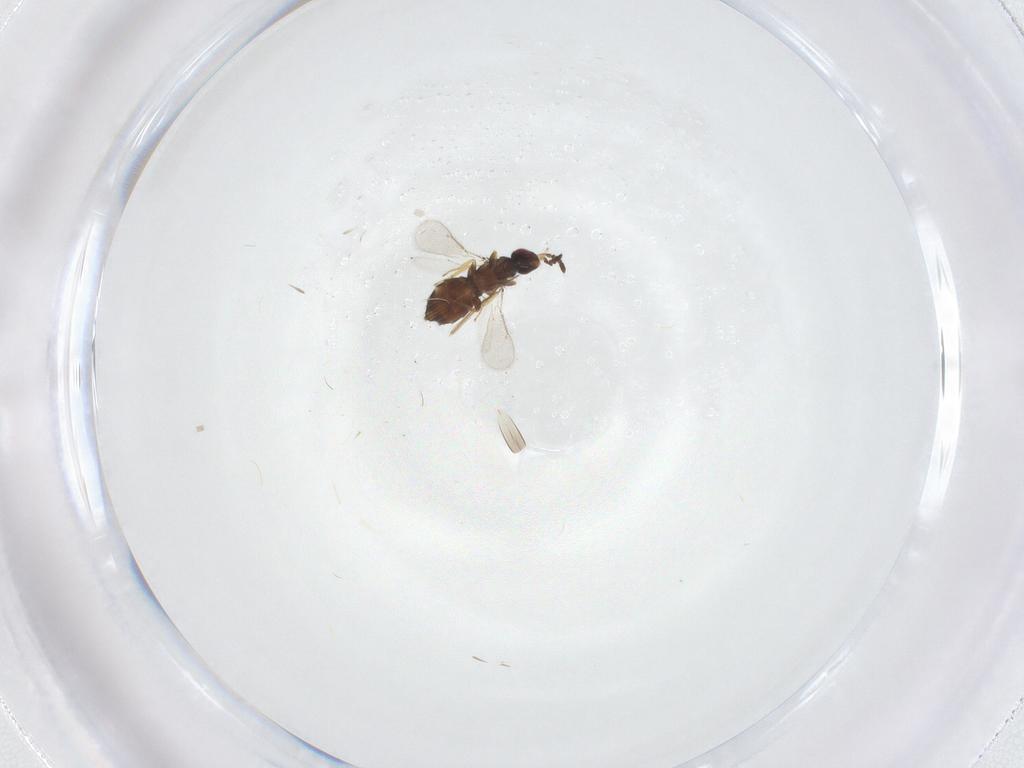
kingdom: Animalia
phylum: Arthropoda
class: Insecta
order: Hymenoptera
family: Eulophidae
